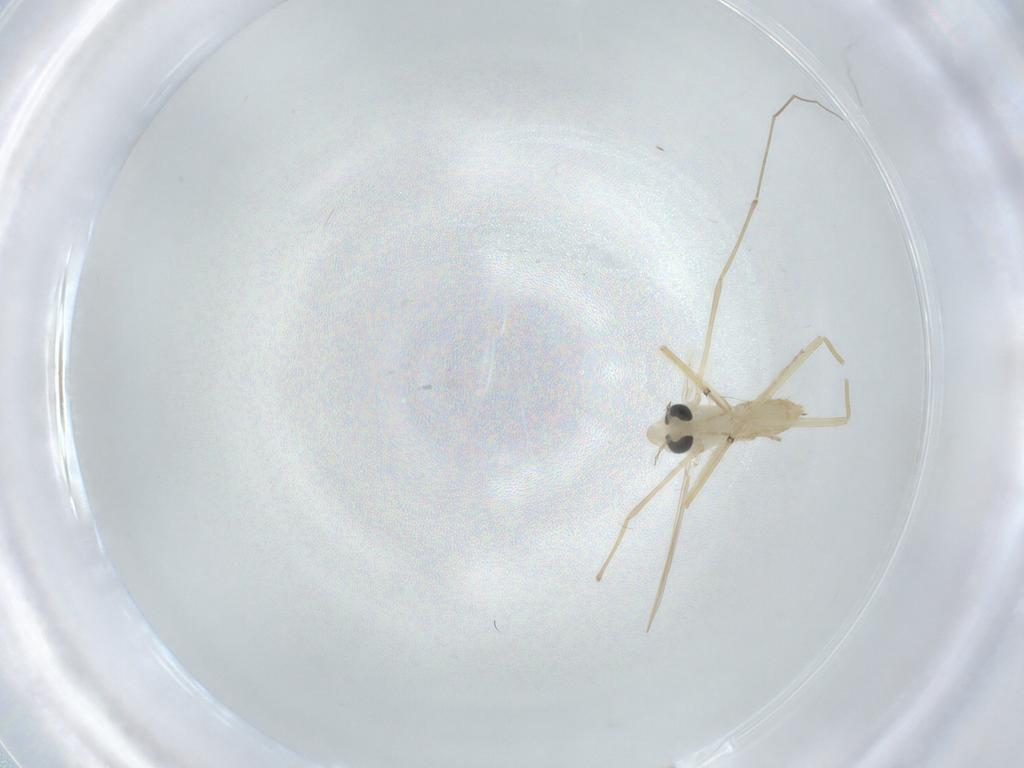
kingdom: Animalia
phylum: Arthropoda
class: Insecta
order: Diptera
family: Chironomidae
